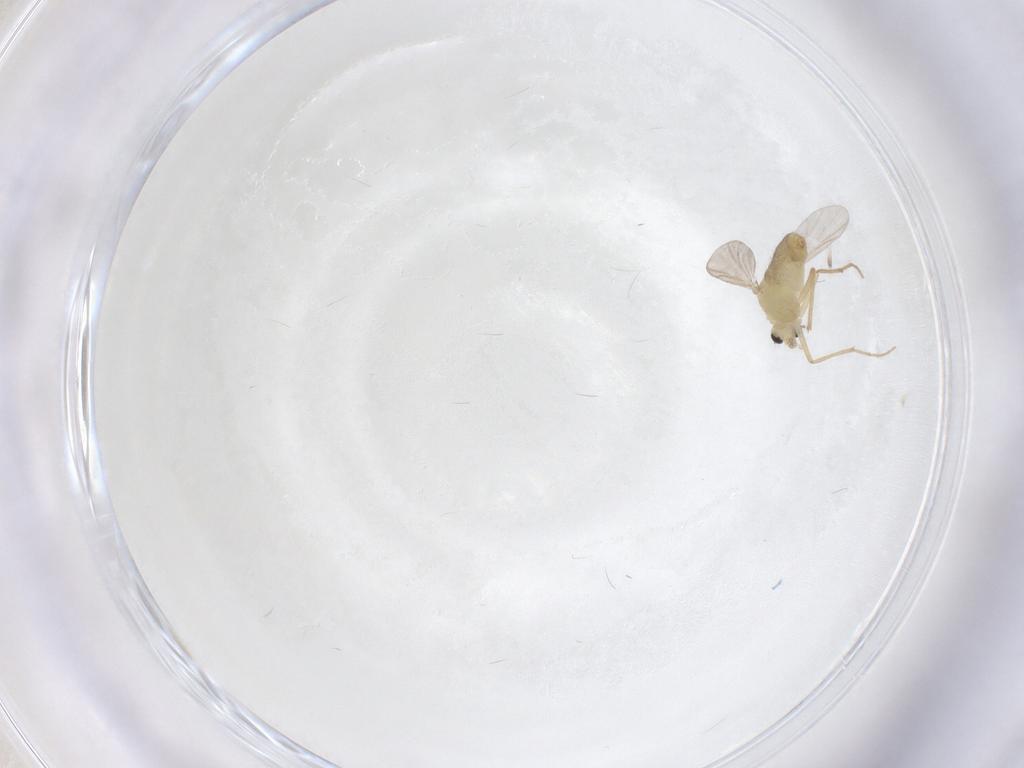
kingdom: Animalia
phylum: Arthropoda
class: Insecta
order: Diptera
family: Chironomidae
